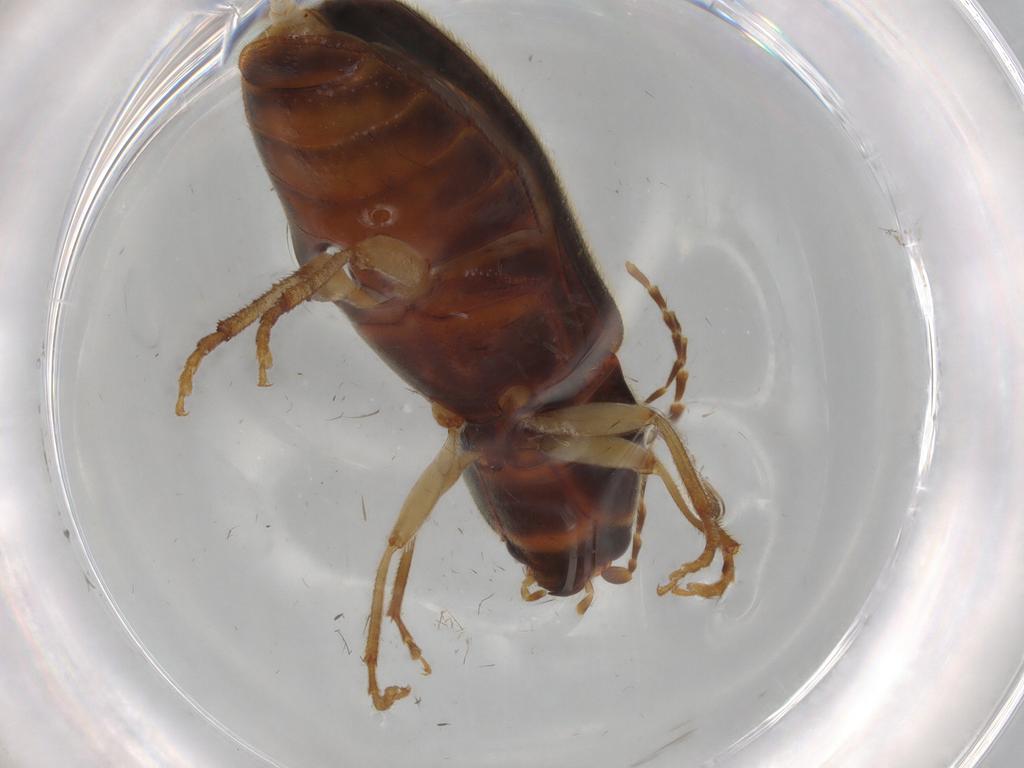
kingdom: Animalia
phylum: Arthropoda
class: Insecta
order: Coleoptera
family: Elateridae
